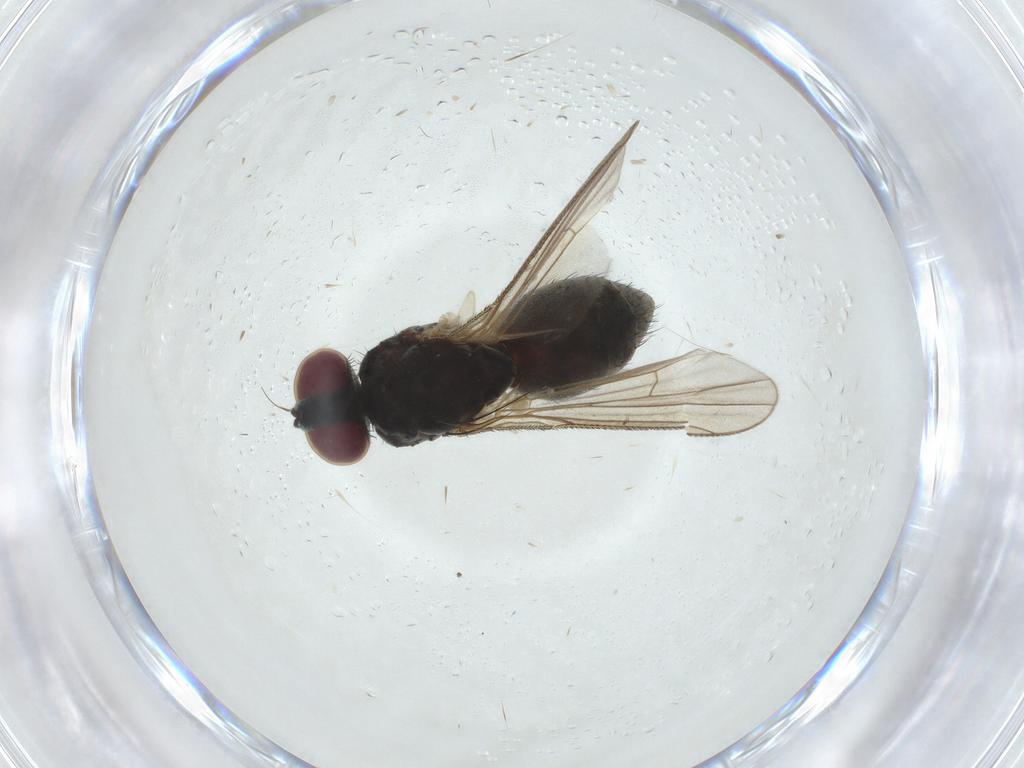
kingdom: Animalia
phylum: Arthropoda
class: Insecta
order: Diptera
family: Muscidae
